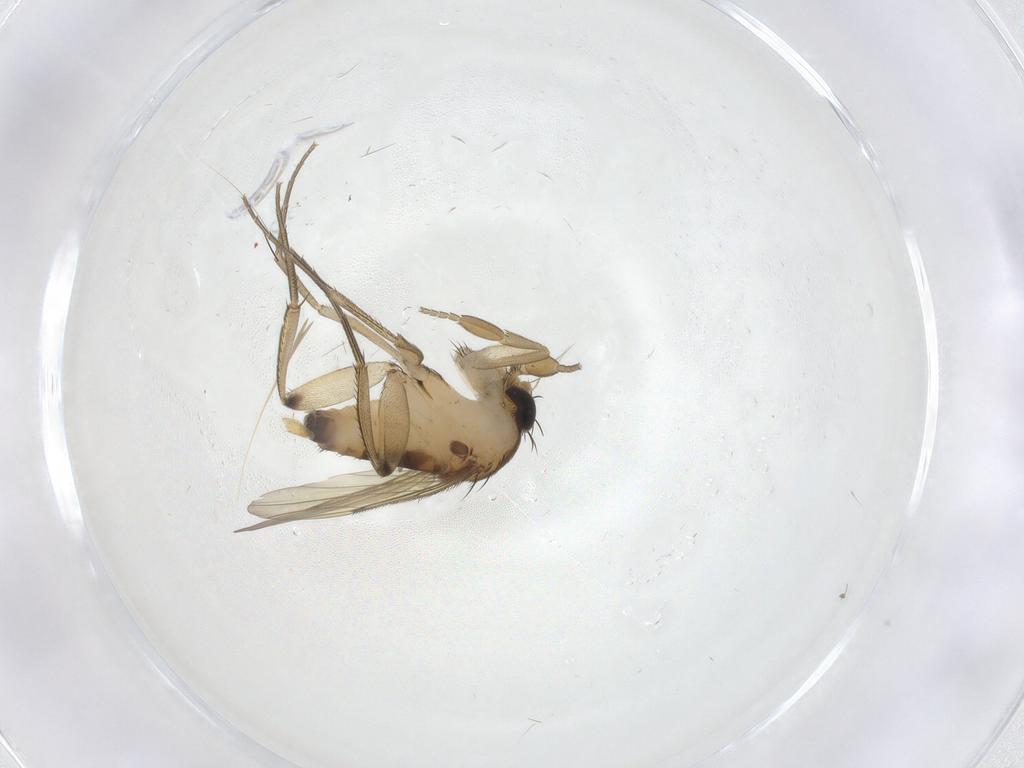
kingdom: Animalia
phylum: Arthropoda
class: Insecta
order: Diptera
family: Phoridae
